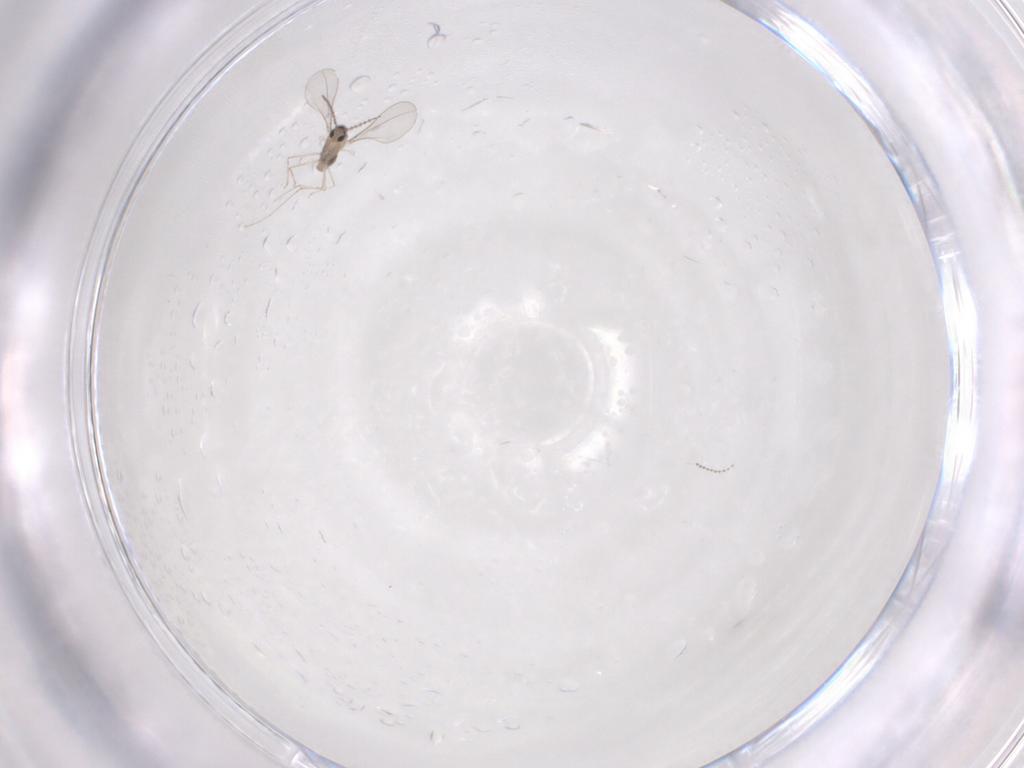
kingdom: Animalia
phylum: Arthropoda
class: Insecta
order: Diptera
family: Cecidomyiidae
